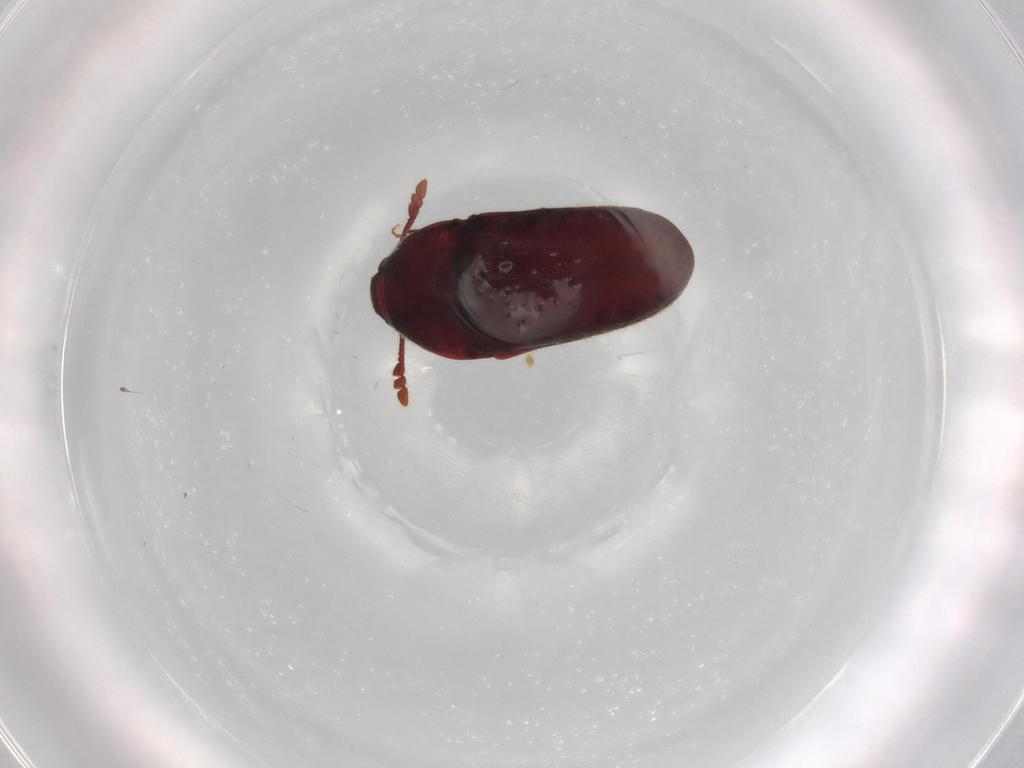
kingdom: Animalia
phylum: Arthropoda
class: Insecta
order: Coleoptera
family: Throscidae
